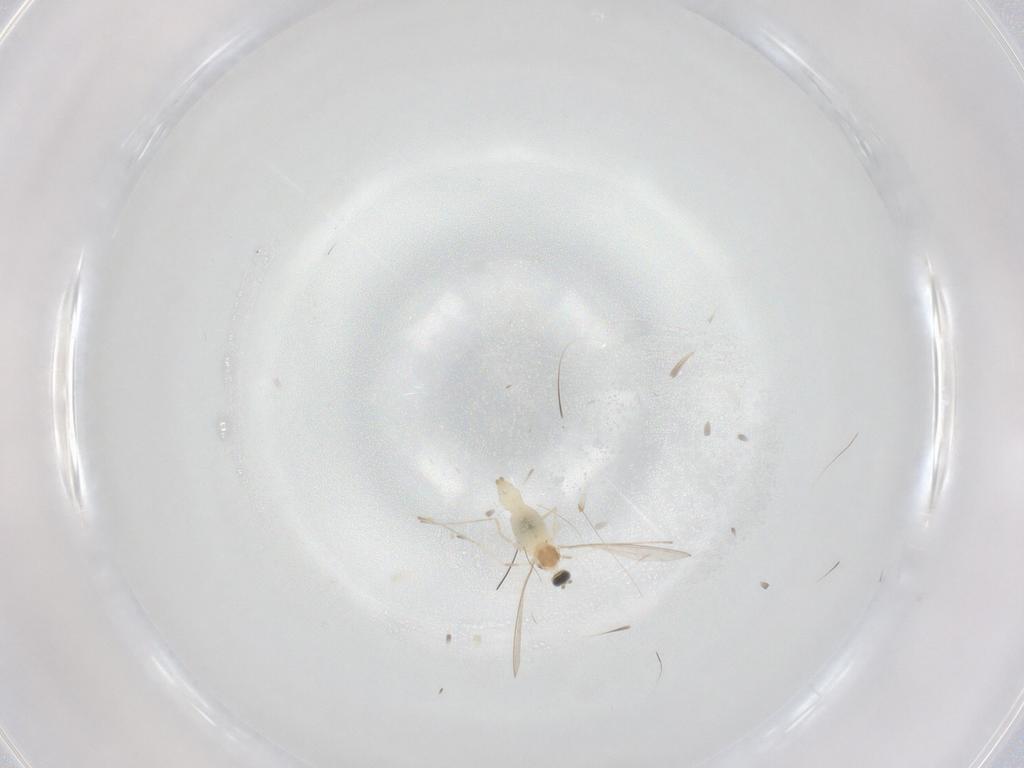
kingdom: Animalia
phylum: Arthropoda
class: Insecta
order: Diptera
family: Cecidomyiidae
